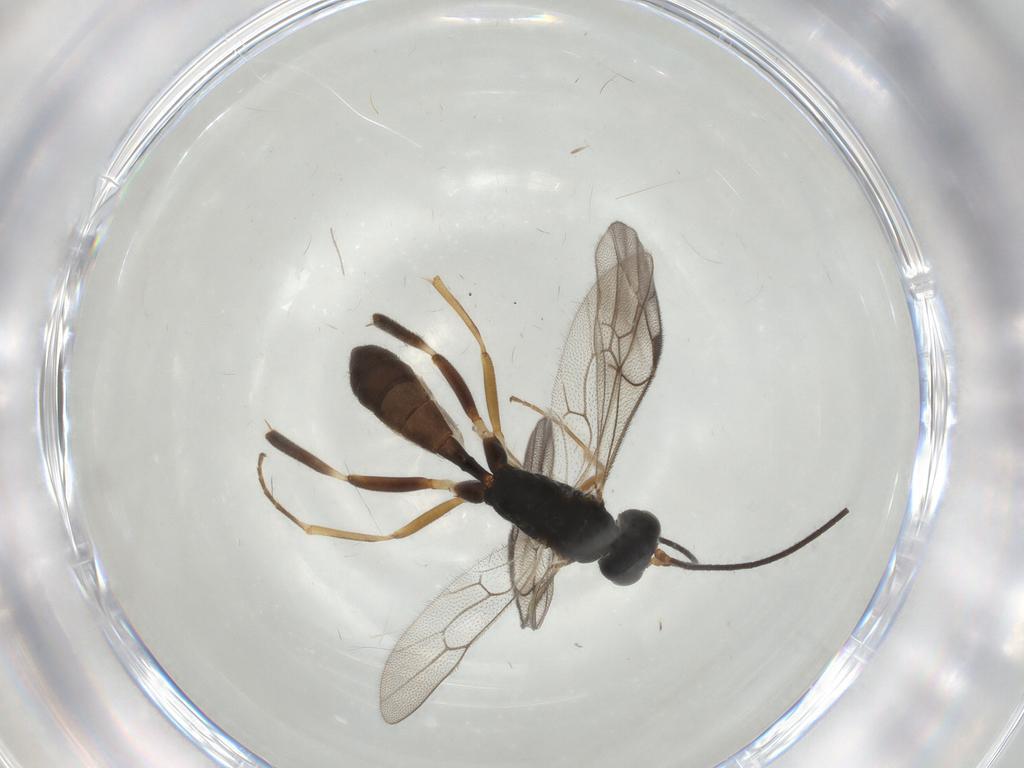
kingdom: Animalia
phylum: Arthropoda
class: Insecta
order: Hymenoptera
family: Ichneumonidae
